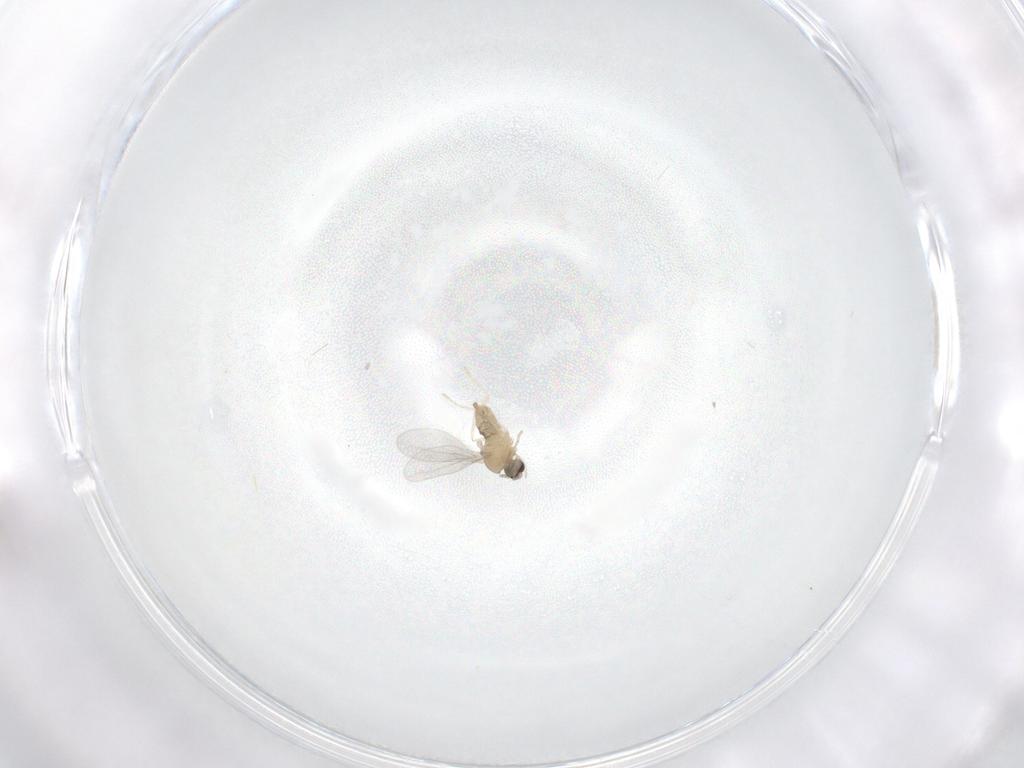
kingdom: Animalia
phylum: Arthropoda
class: Insecta
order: Diptera
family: Cecidomyiidae
